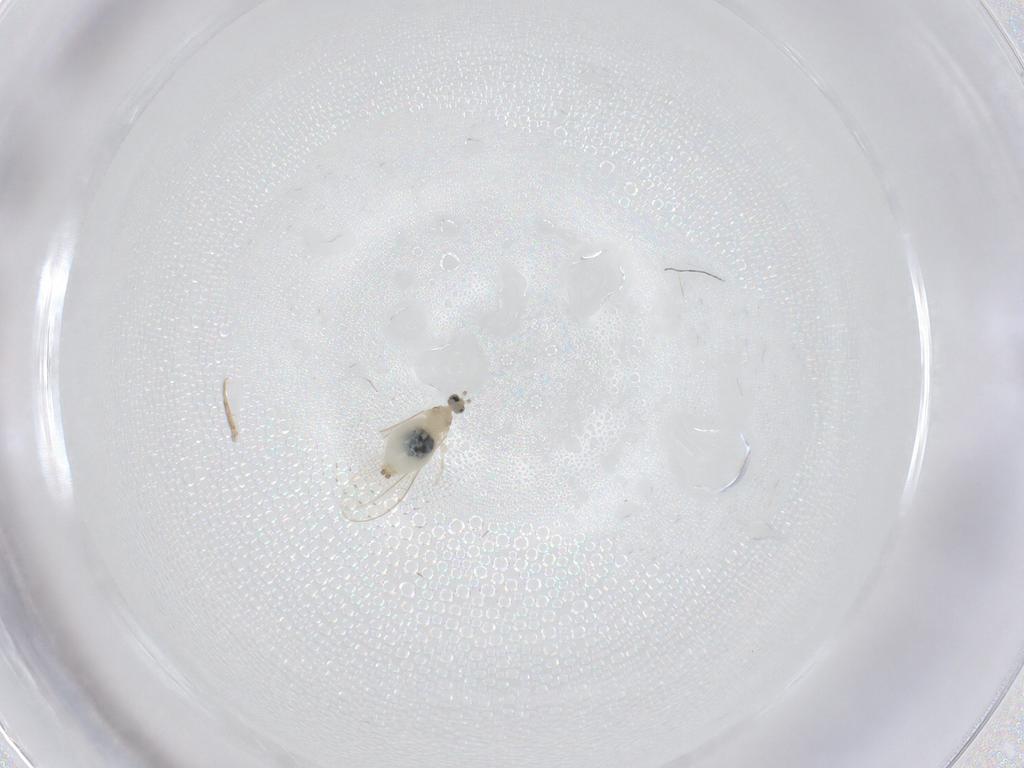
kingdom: Animalia
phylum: Arthropoda
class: Insecta
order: Diptera
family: Cecidomyiidae
